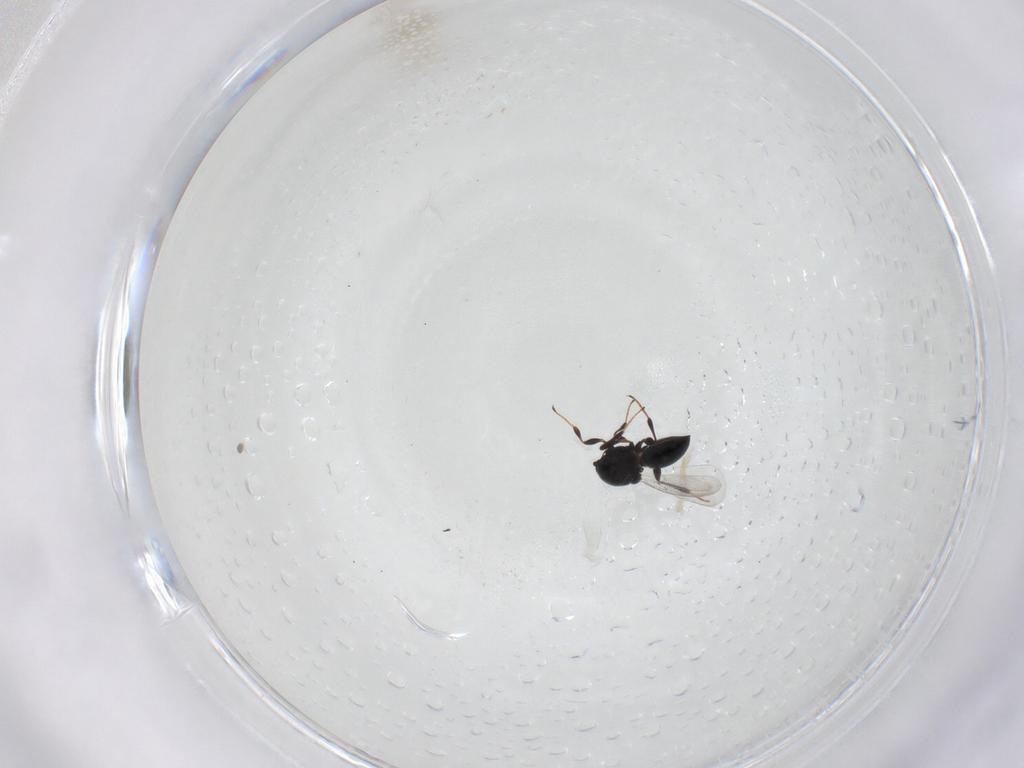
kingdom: Animalia
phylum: Arthropoda
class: Insecta
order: Hymenoptera
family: Platygastridae
